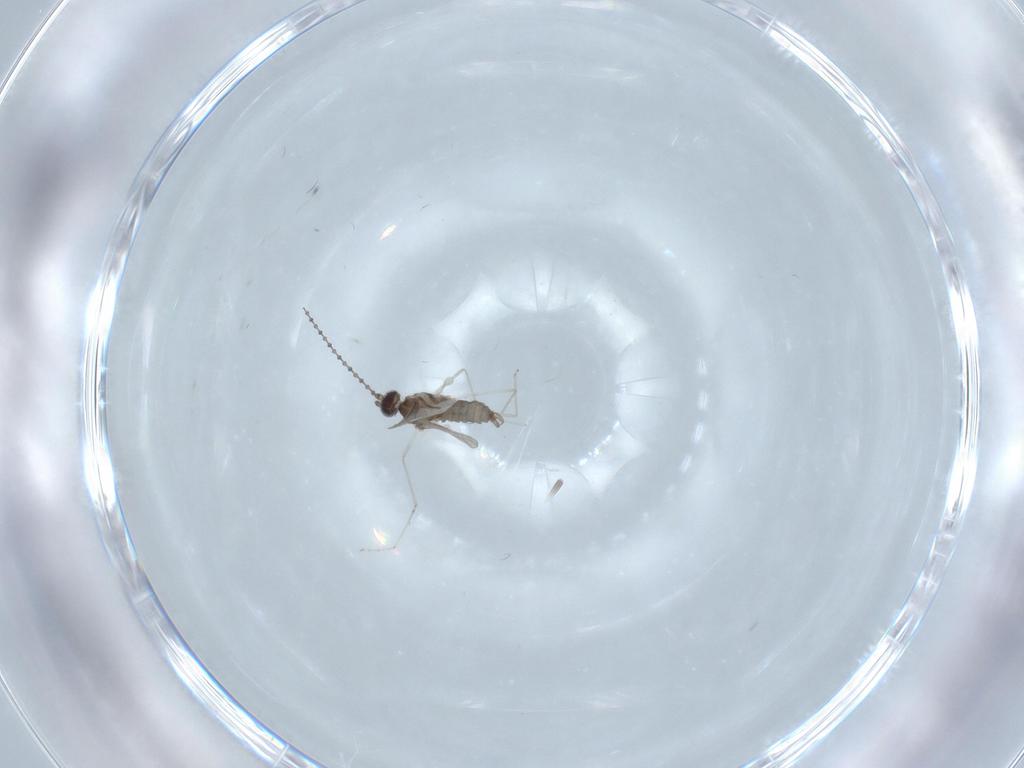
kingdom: Animalia
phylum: Arthropoda
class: Insecta
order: Diptera
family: Cecidomyiidae
